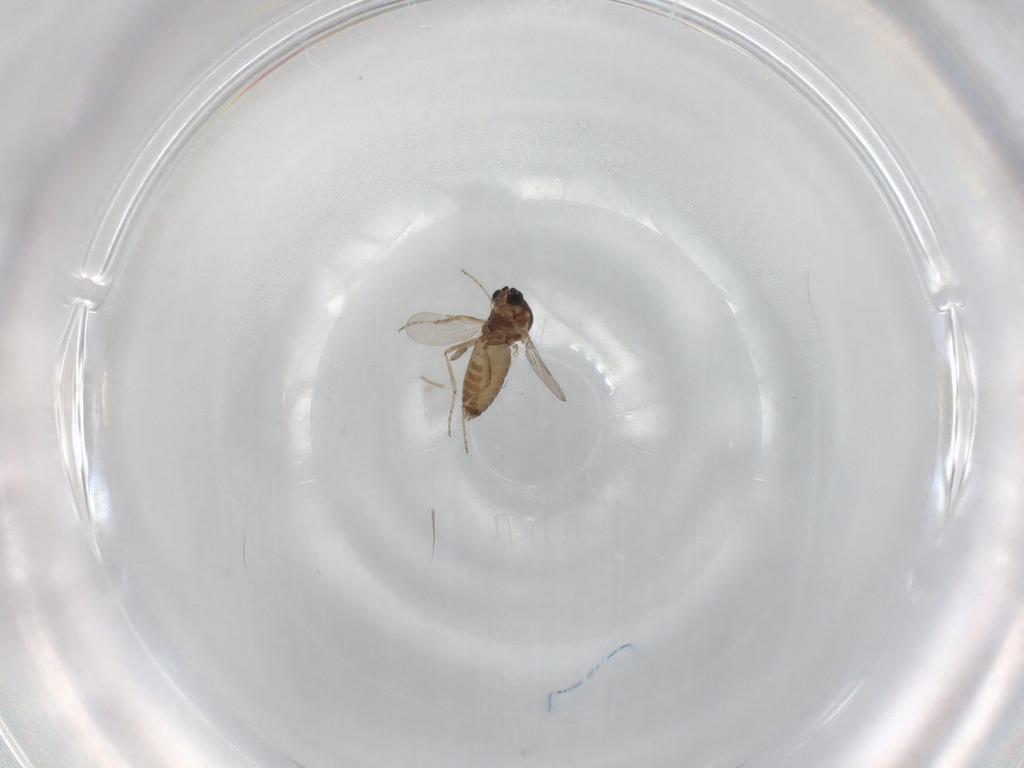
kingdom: Animalia
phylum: Arthropoda
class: Insecta
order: Diptera
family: Ceratopogonidae
